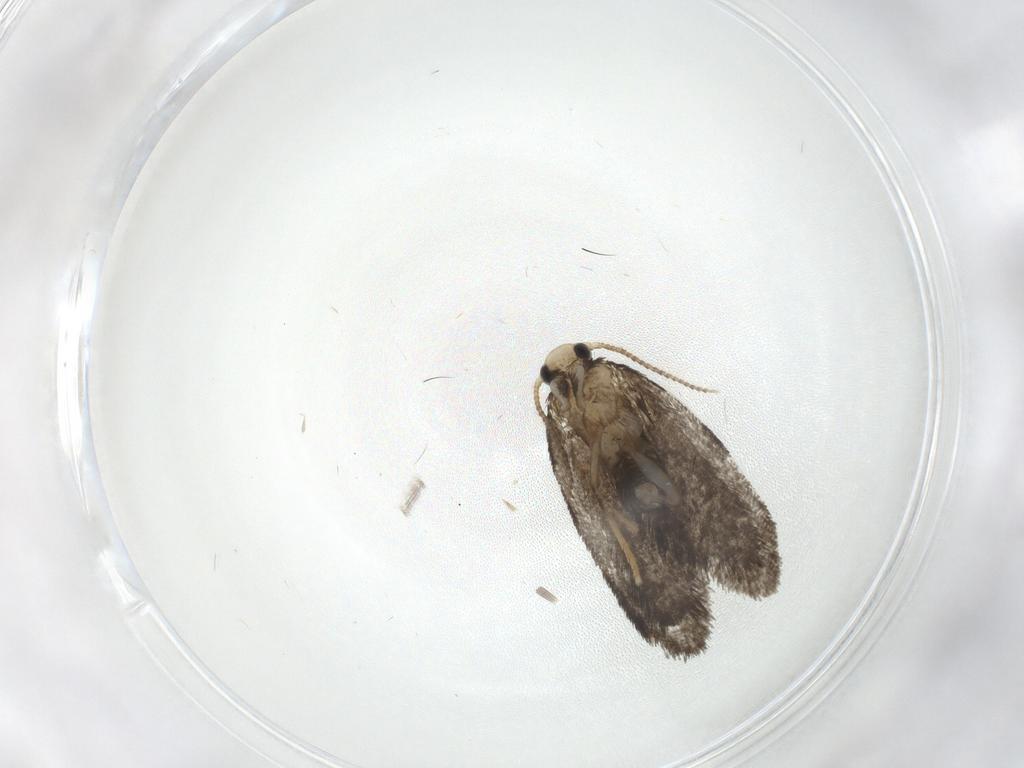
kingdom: Animalia
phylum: Arthropoda
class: Insecta
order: Lepidoptera
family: Psychidae
